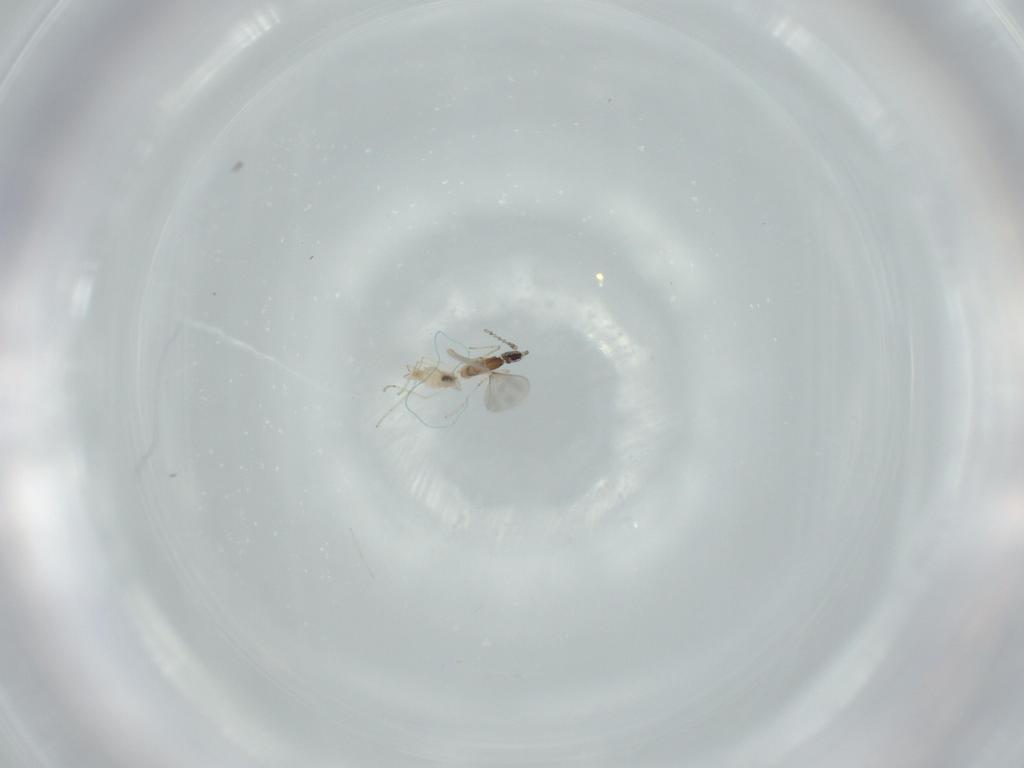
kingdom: Animalia
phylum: Arthropoda
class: Insecta
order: Diptera
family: Cecidomyiidae
